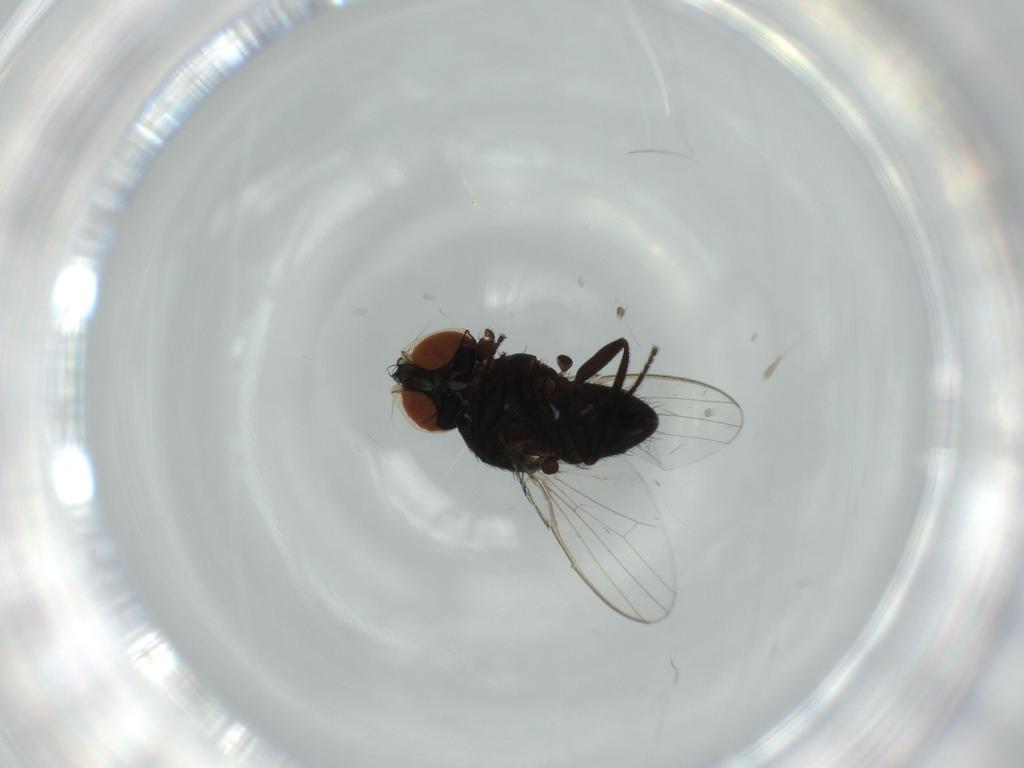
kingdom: Animalia
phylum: Arthropoda
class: Insecta
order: Diptera
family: Milichiidae
